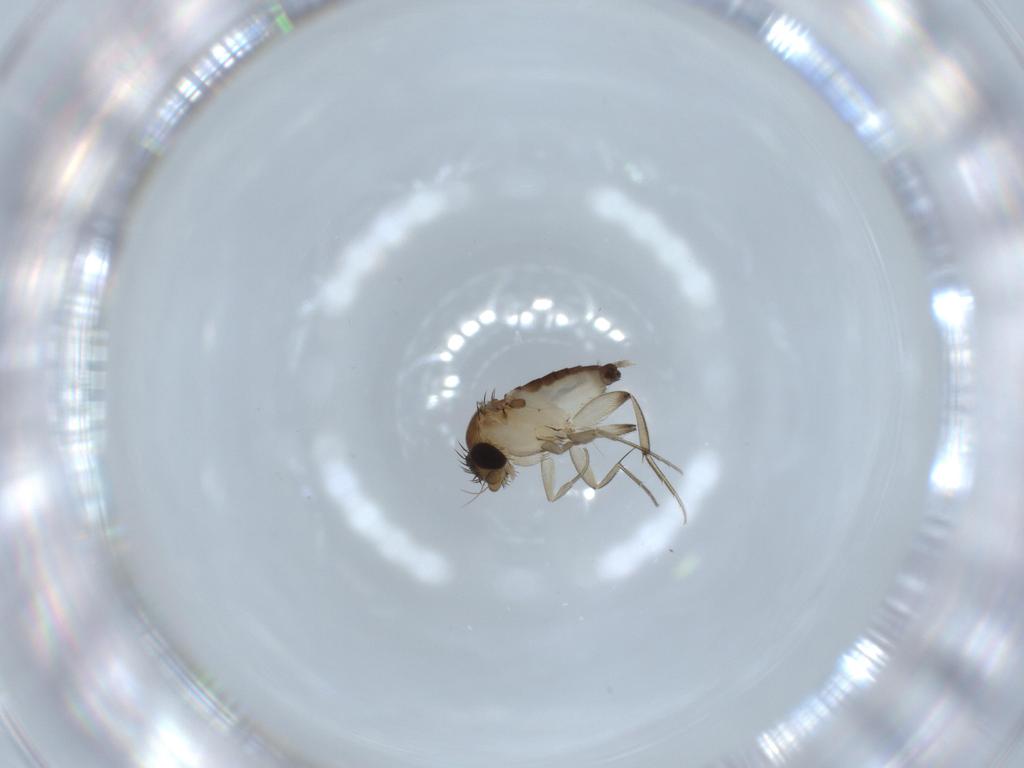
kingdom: Animalia
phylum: Arthropoda
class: Insecta
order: Diptera
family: Phoridae
